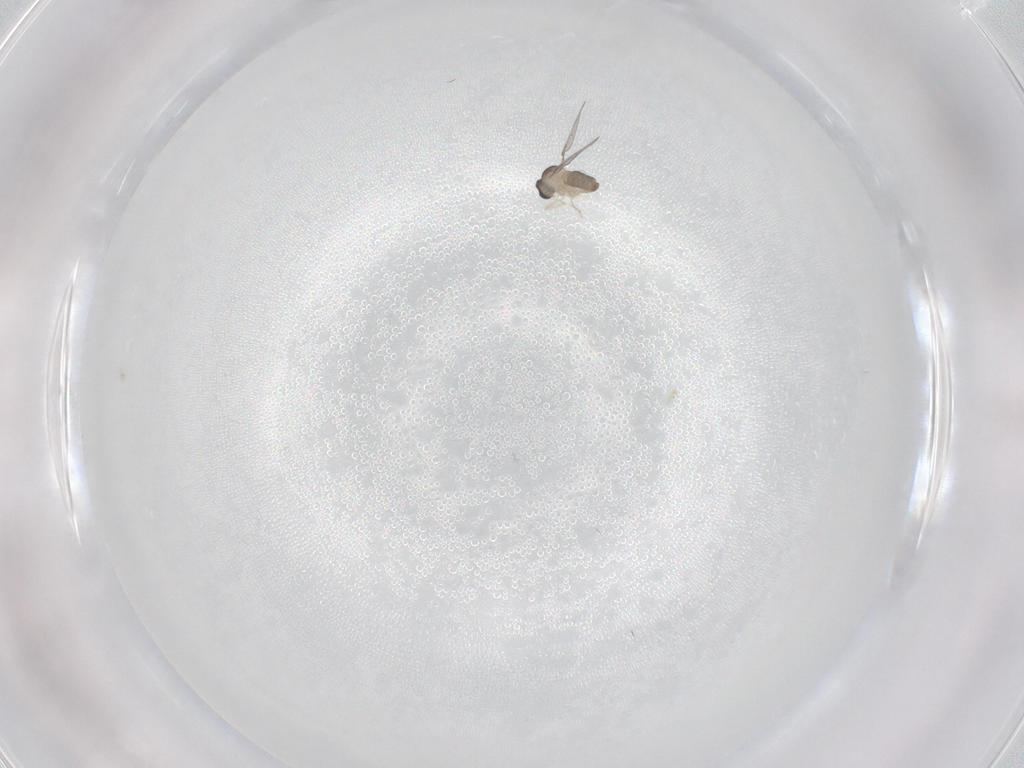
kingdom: Animalia
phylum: Arthropoda
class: Insecta
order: Diptera
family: Cecidomyiidae
